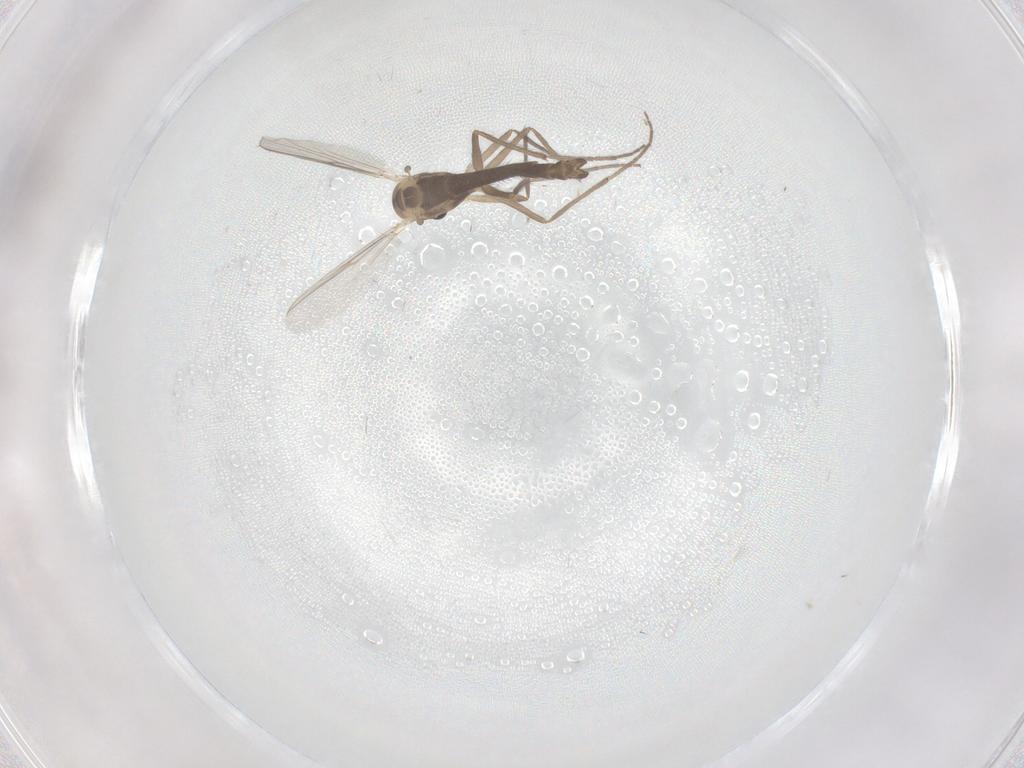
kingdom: Animalia
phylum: Arthropoda
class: Insecta
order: Diptera
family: Chironomidae
